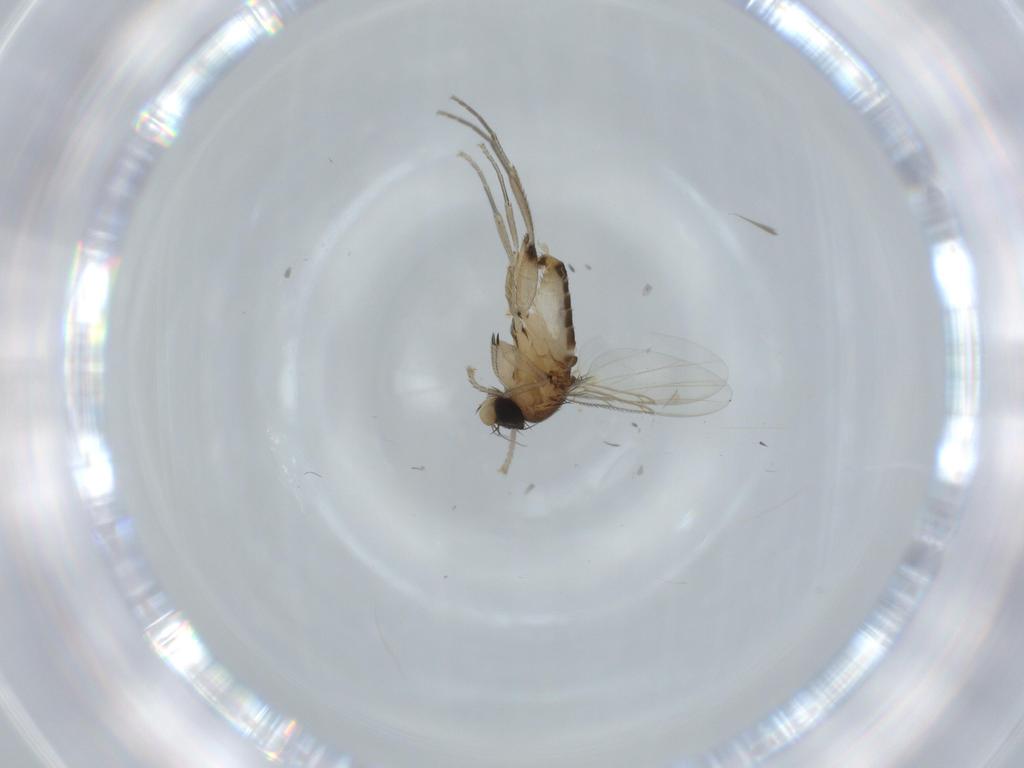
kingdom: Animalia
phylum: Arthropoda
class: Insecta
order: Diptera
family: Phoridae
